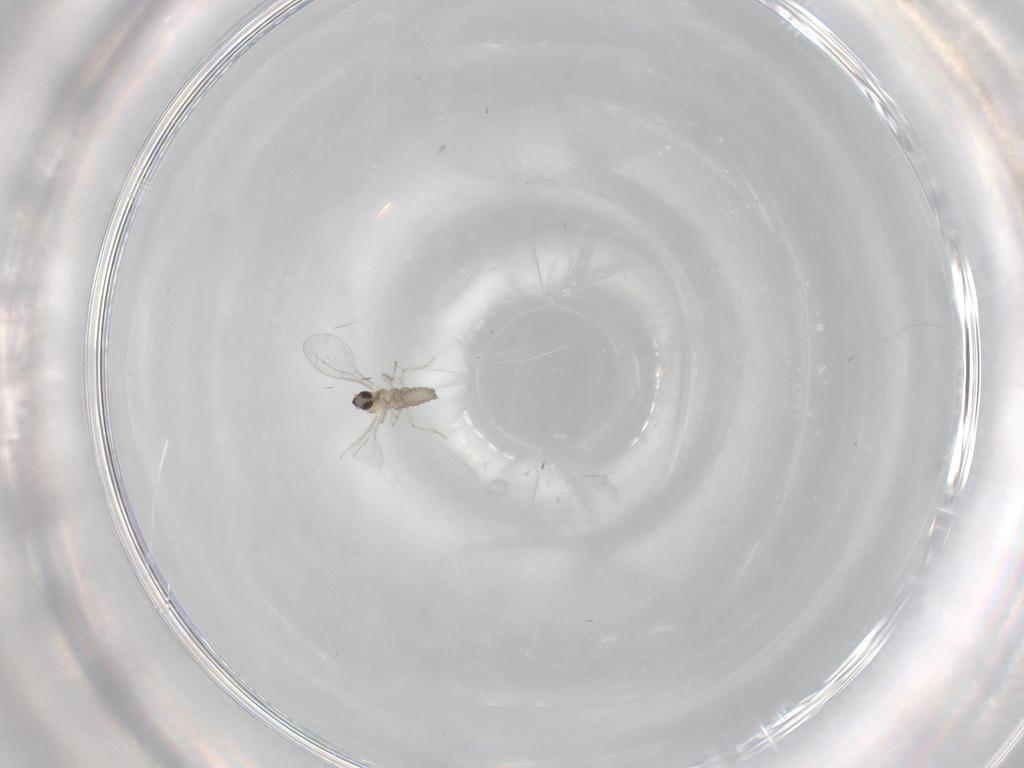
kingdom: Animalia
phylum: Arthropoda
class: Insecta
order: Diptera
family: Cecidomyiidae
